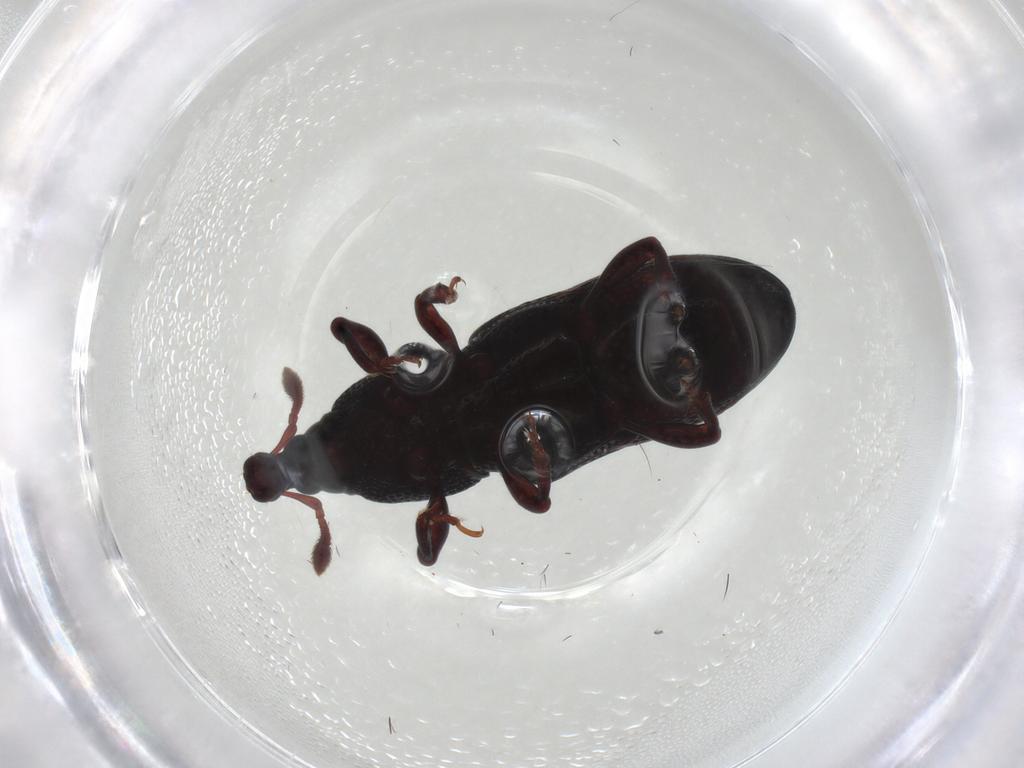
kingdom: Animalia
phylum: Arthropoda
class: Insecta
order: Coleoptera
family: Curculionidae
